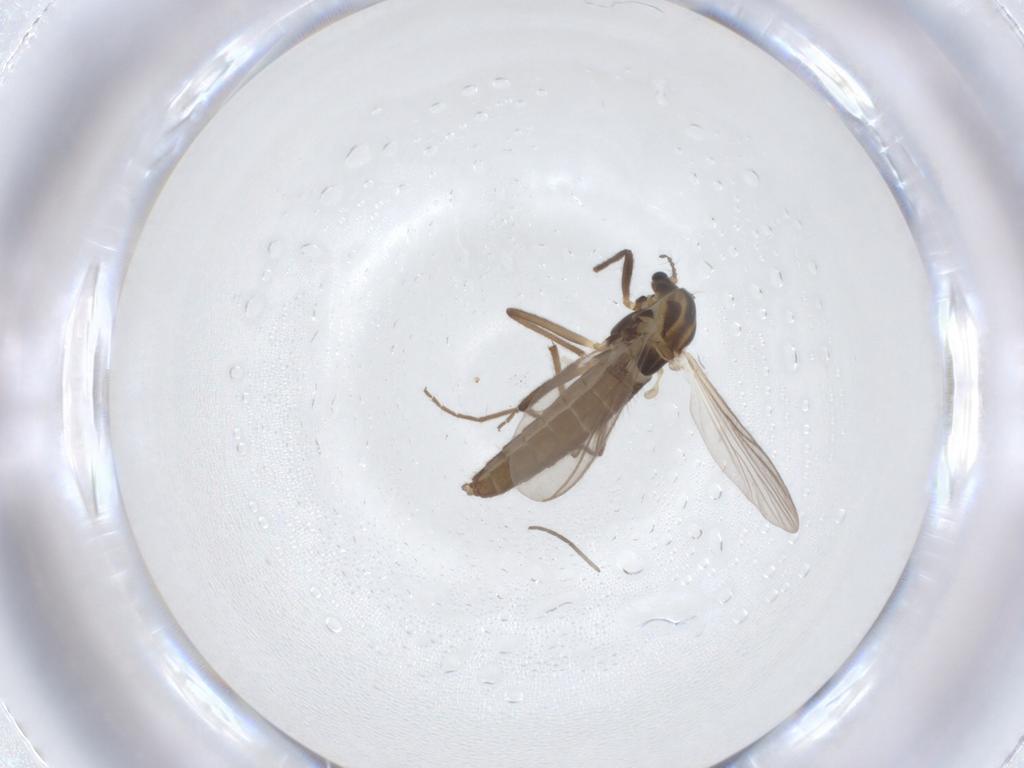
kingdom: Animalia
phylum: Arthropoda
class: Insecta
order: Diptera
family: Chironomidae
